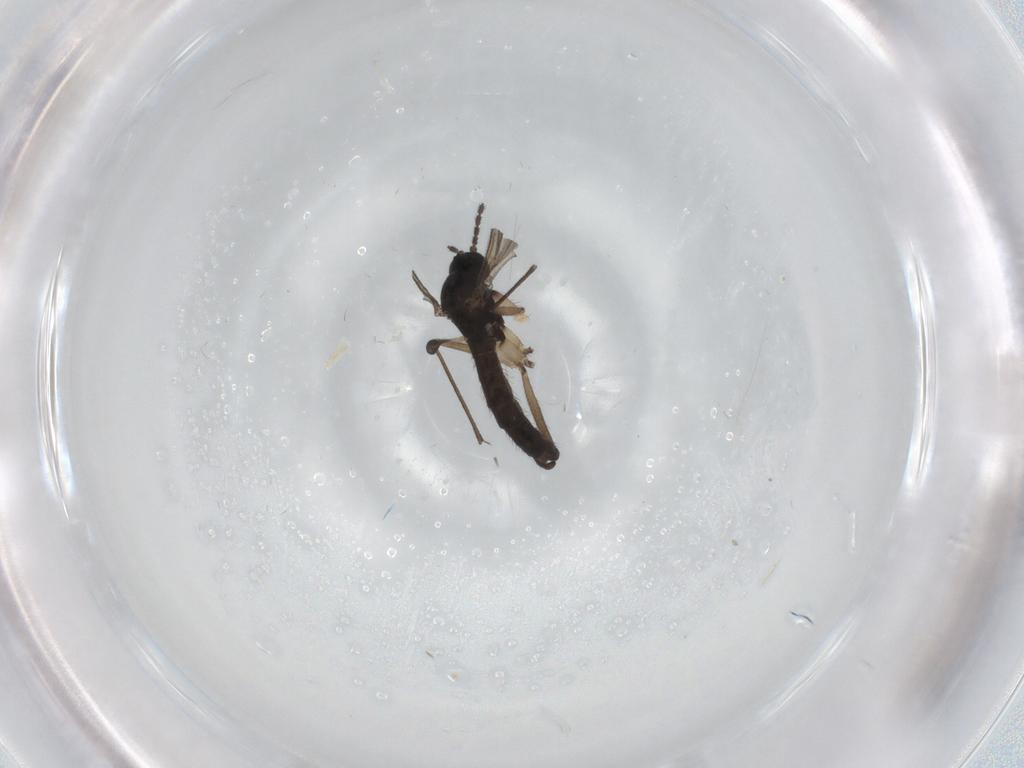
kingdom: Animalia
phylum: Arthropoda
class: Insecta
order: Diptera
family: Sciaridae
